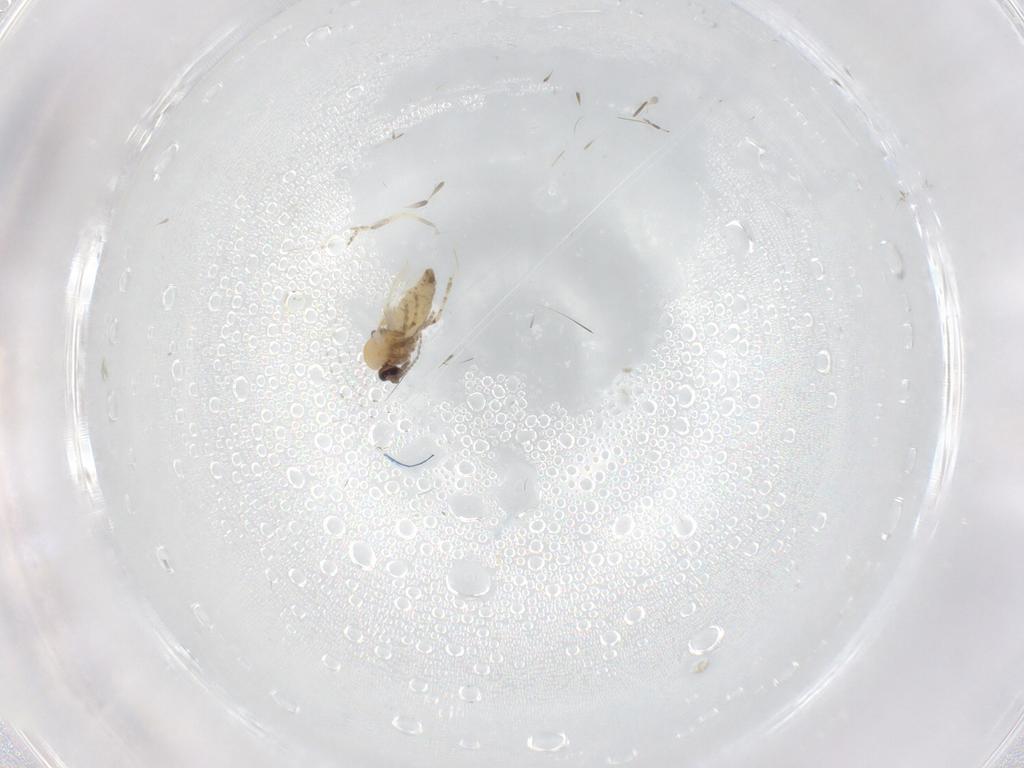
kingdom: Animalia
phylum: Arthropoda
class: Insecta
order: Diptera
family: Ceratopogonidae
